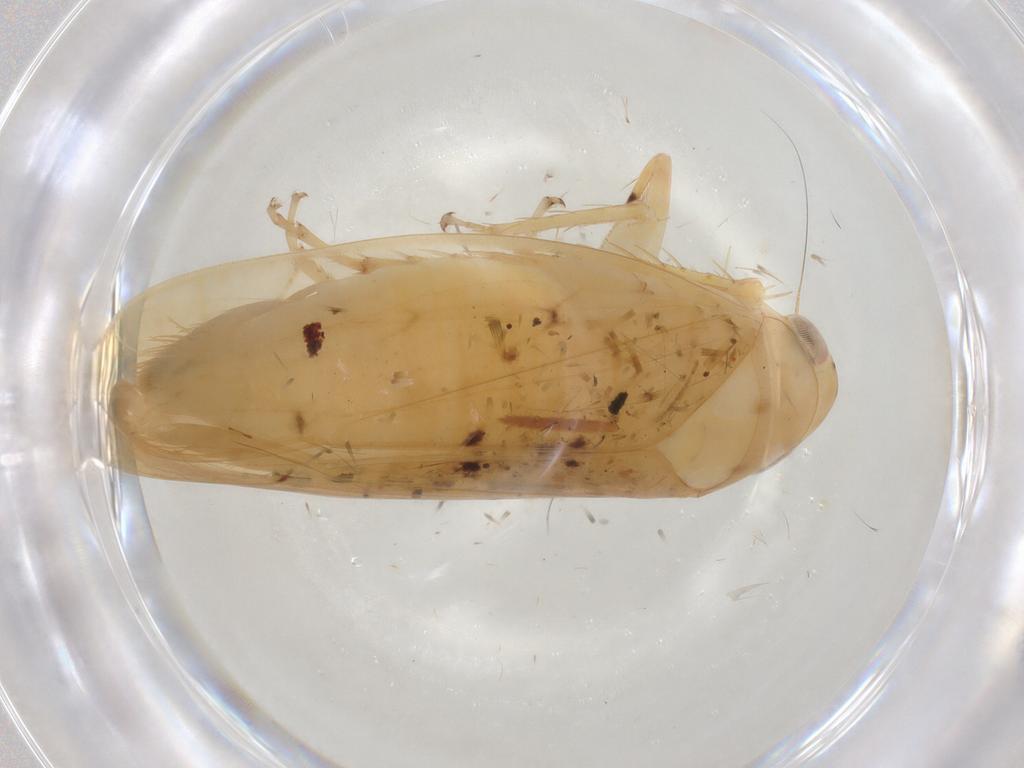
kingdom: Animalia
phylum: Arthropoda
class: Insecta
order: Hemiptera
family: Cicadellidae
